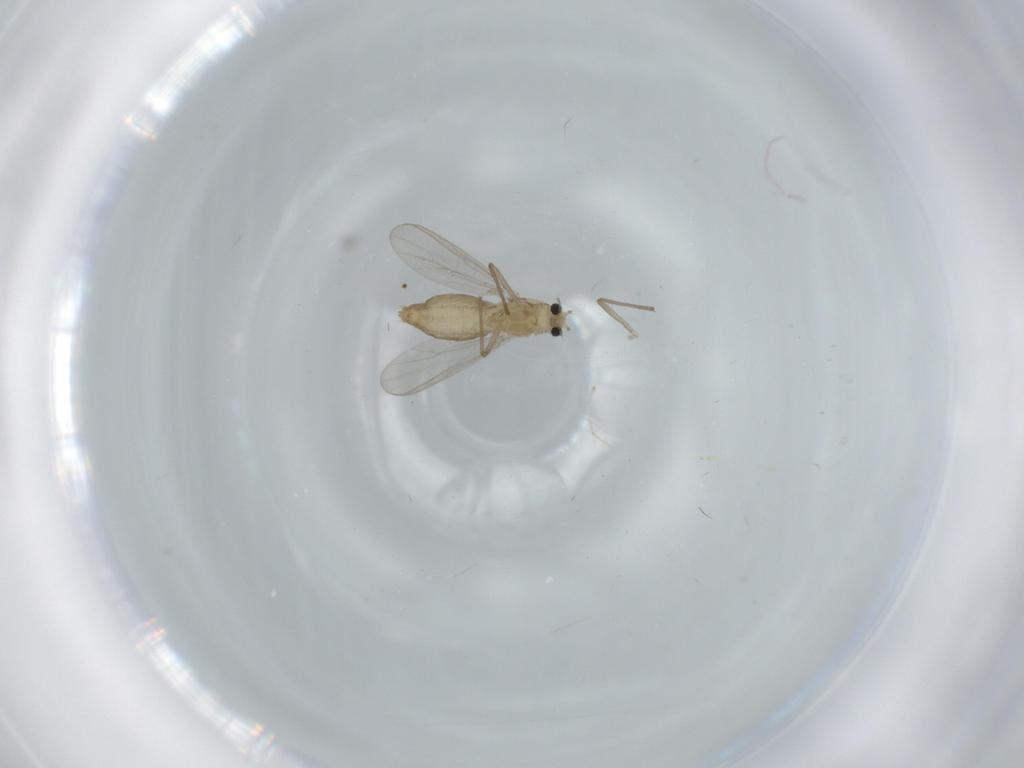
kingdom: Animalia
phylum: Arthropoda
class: Insecta
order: Diptera
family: Chironomidae
